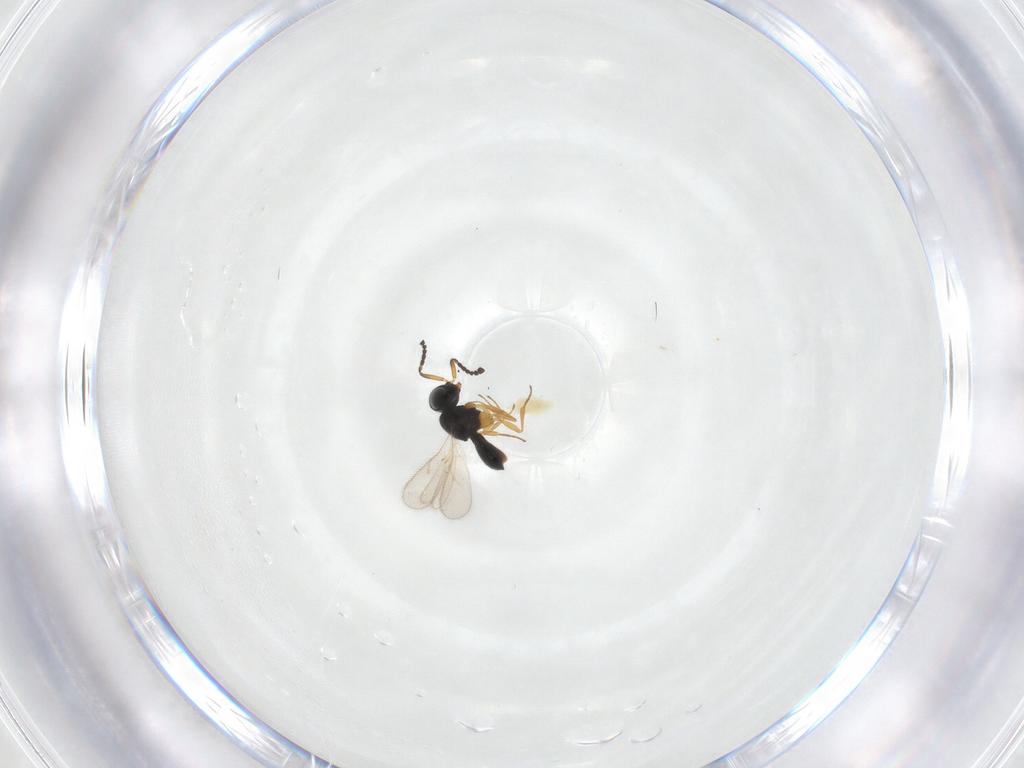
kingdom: Animalia
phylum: Arthropoda
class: Insecta
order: Hymenoptera
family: Scelionidae
